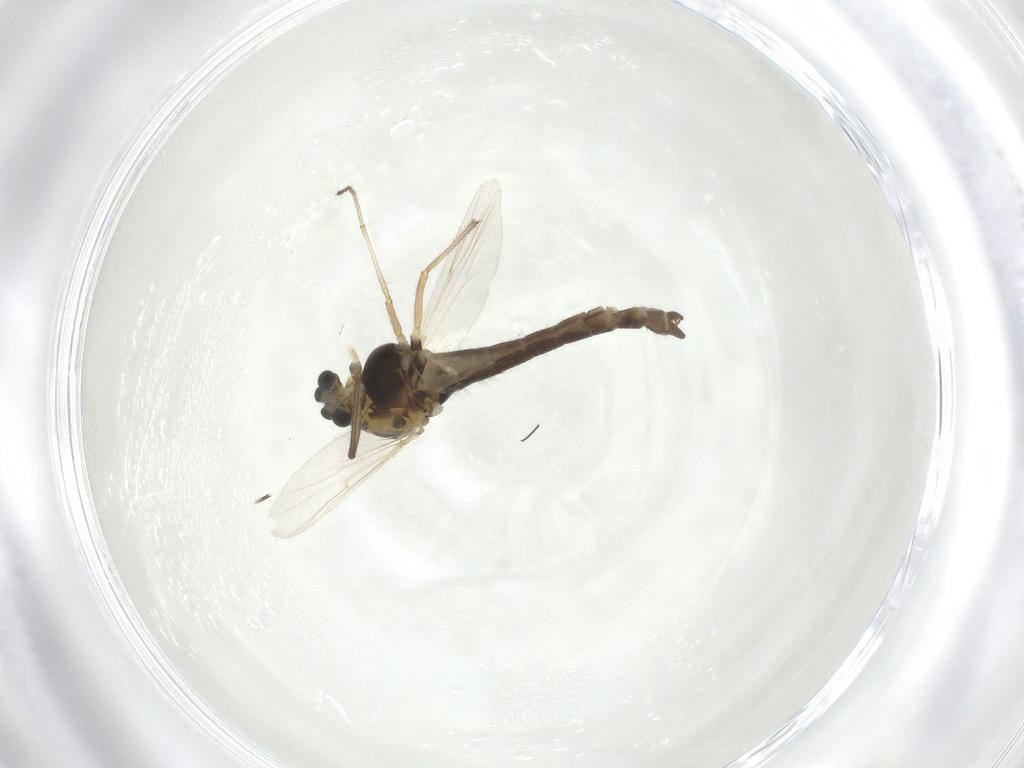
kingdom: Animalia
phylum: Arthropoda
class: Insecta
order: Diptera
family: Chironomidae
